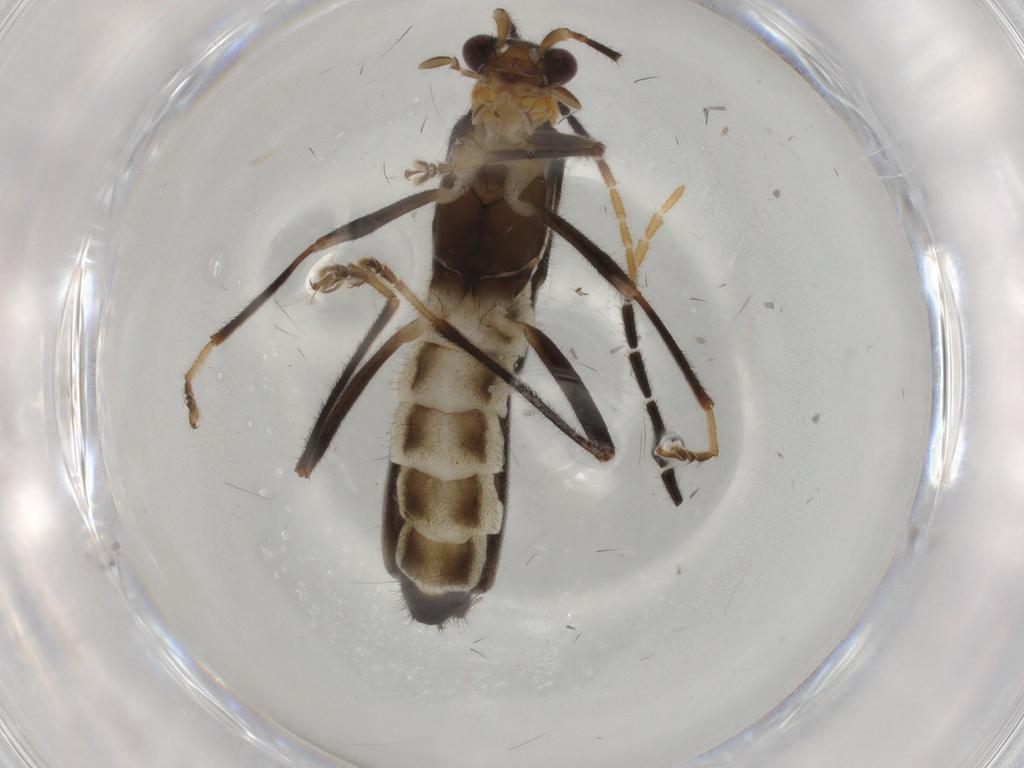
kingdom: Animalia
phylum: Arthropoda
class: Insecta
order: Coleoptera
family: Cantharidae
